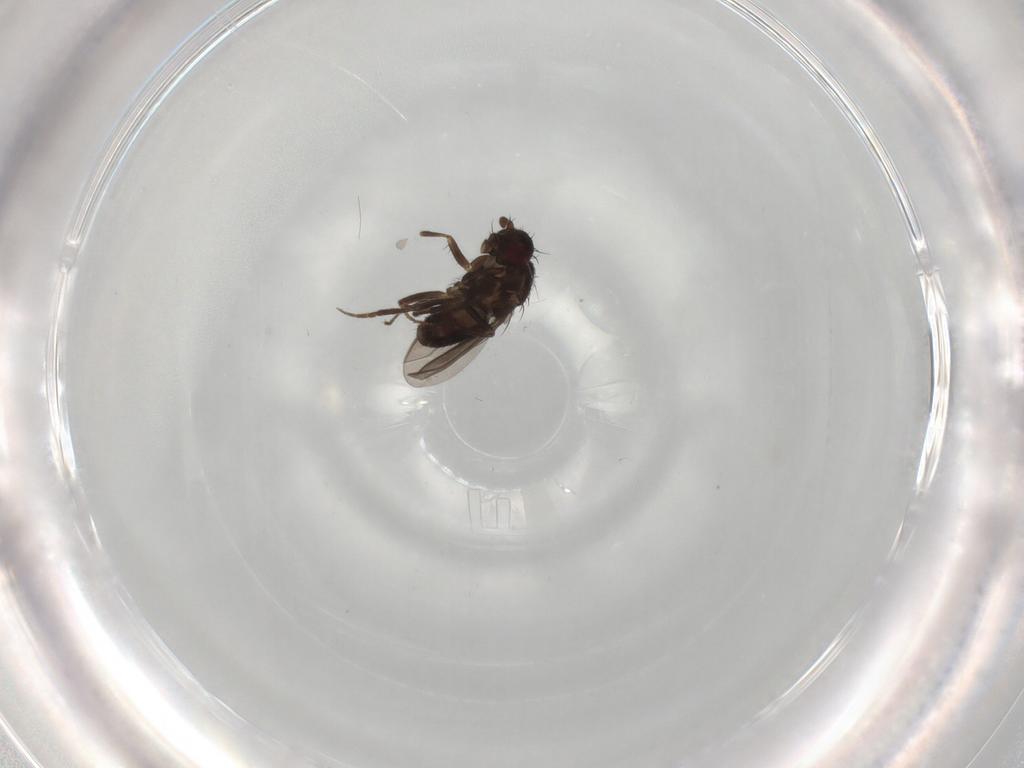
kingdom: Animalia
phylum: Arthropoda
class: Insecta
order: Diptera
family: Sphaeroceridae
